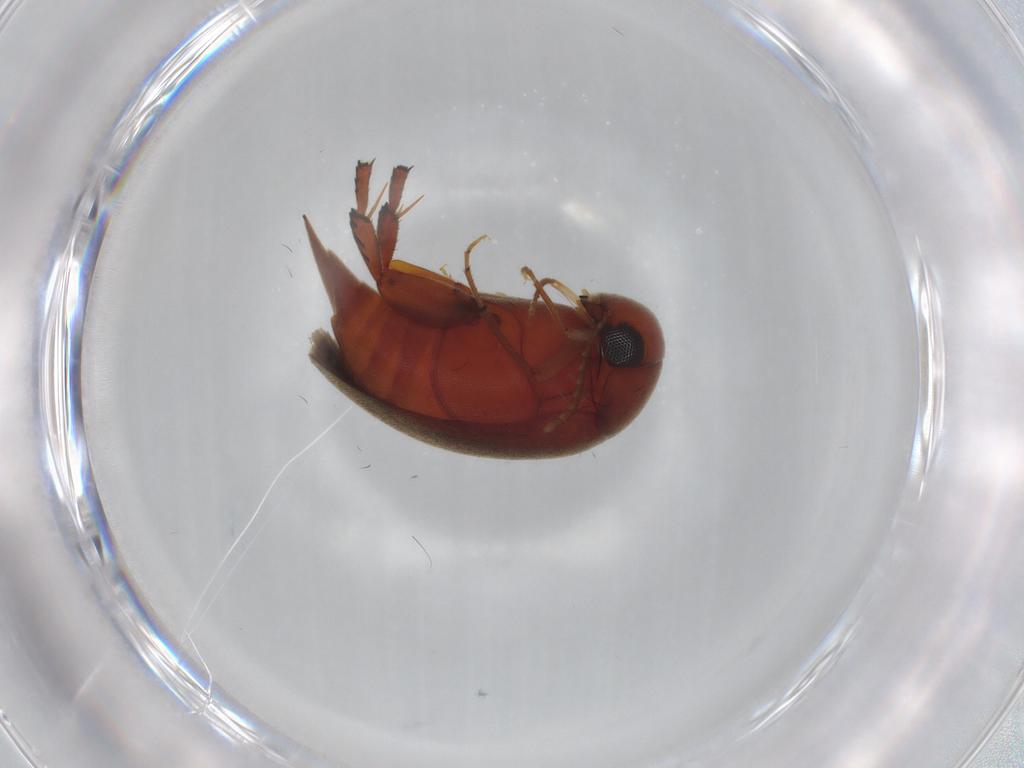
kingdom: Animalia
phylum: Arthropoda
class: Insecta
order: Coleoptera
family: Mordellidae
